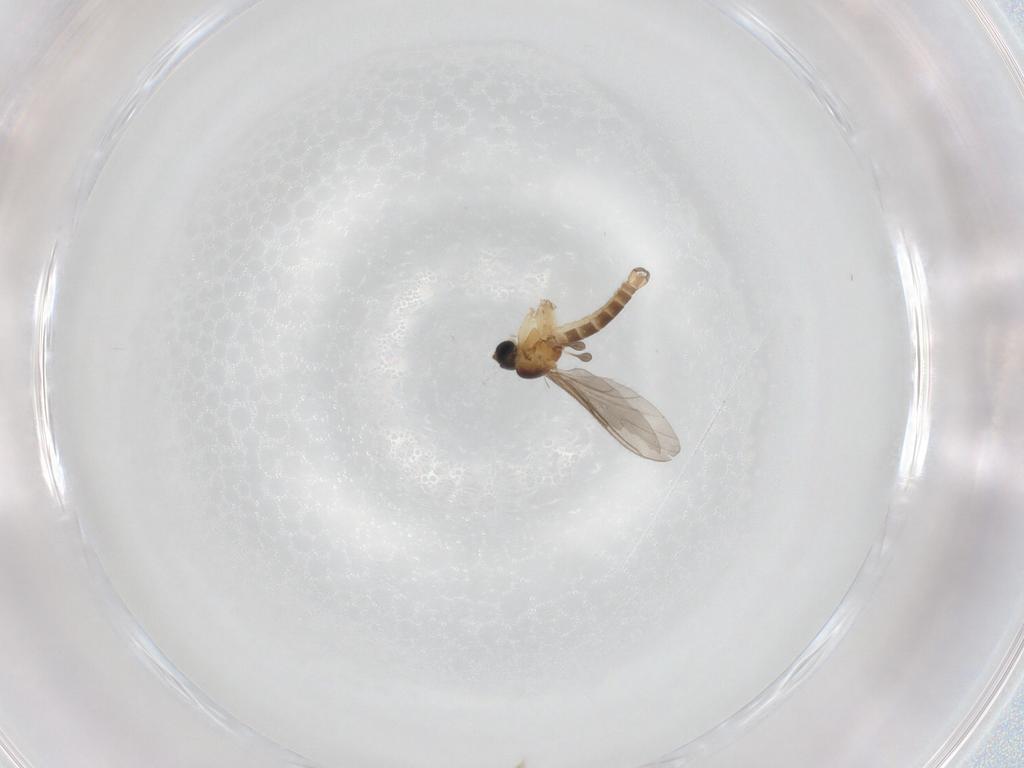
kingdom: Animalia
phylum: Arthropoda
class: Insecta
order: Diptera
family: Sciaridae
